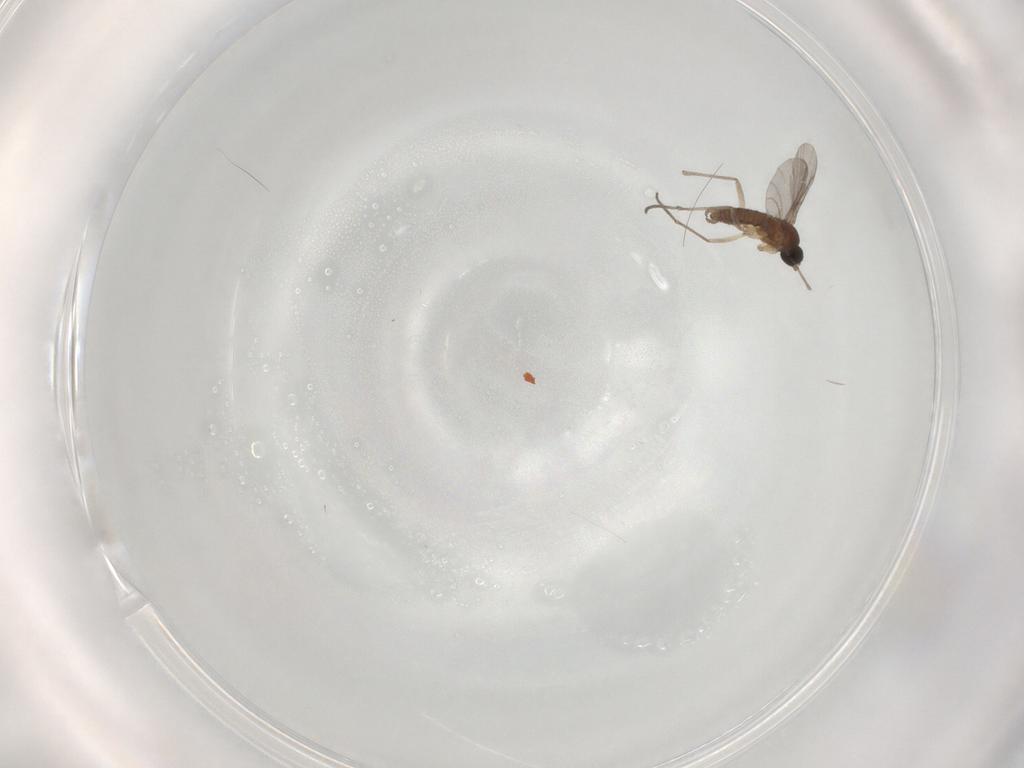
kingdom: Animalia
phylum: Arthropoda
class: Insecta
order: Diptera
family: Sciaridae
